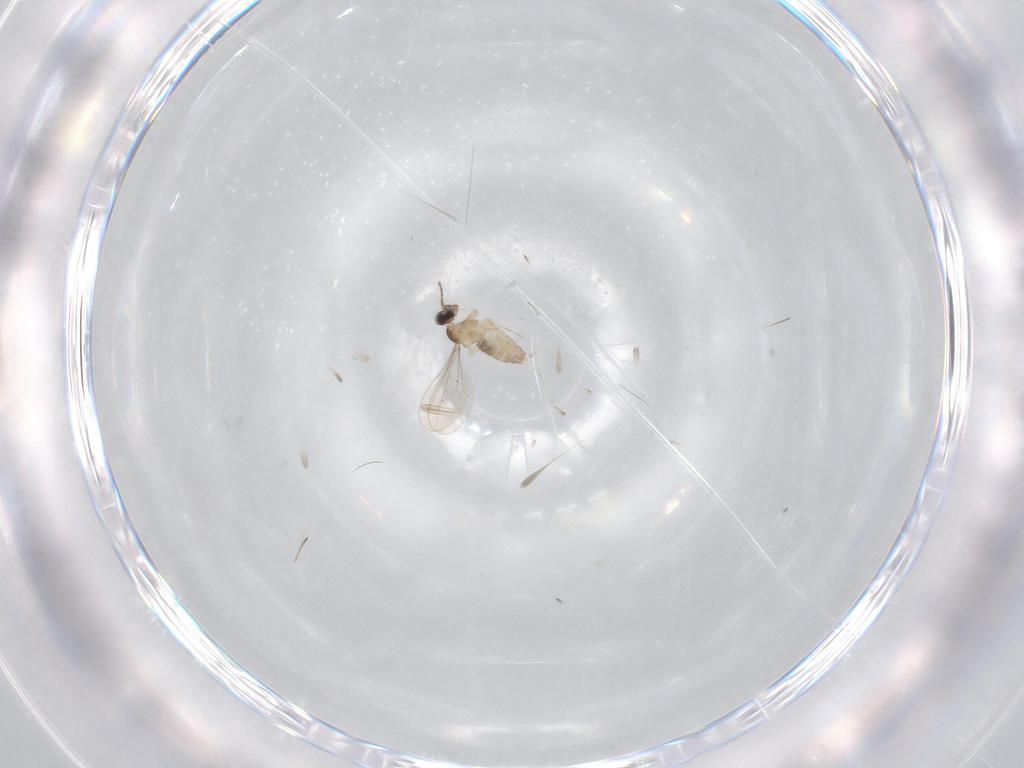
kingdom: Animalia
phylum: Arthropoda
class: Insecta
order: Diptera
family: Cecidomyiidae
